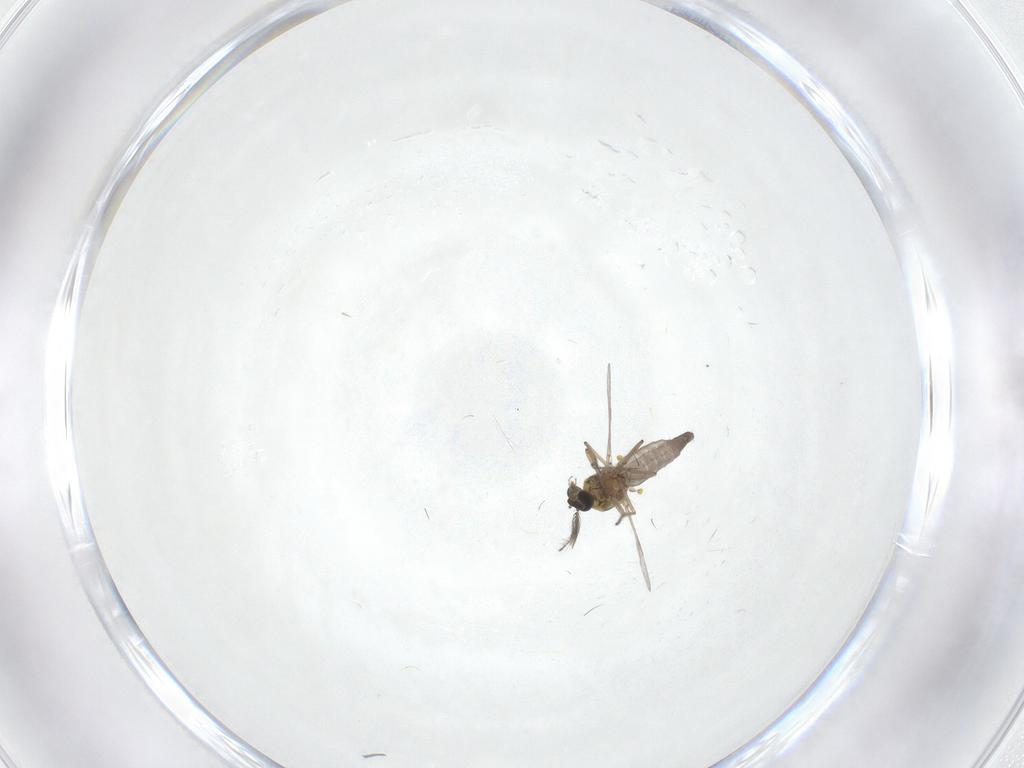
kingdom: Animalia
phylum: Arthropoda
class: Insecta
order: Diptera
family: Ceratopogonidae
